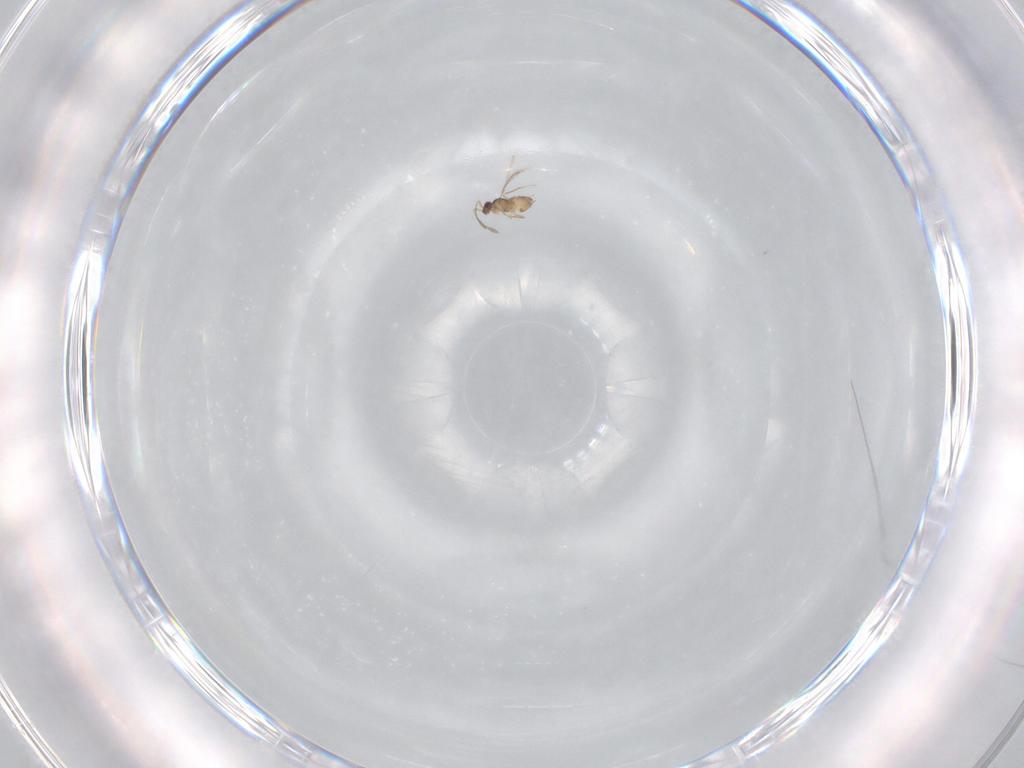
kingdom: Animalia
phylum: Arthropoda
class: Insecta
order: Hymenoptera
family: Mymaridae
